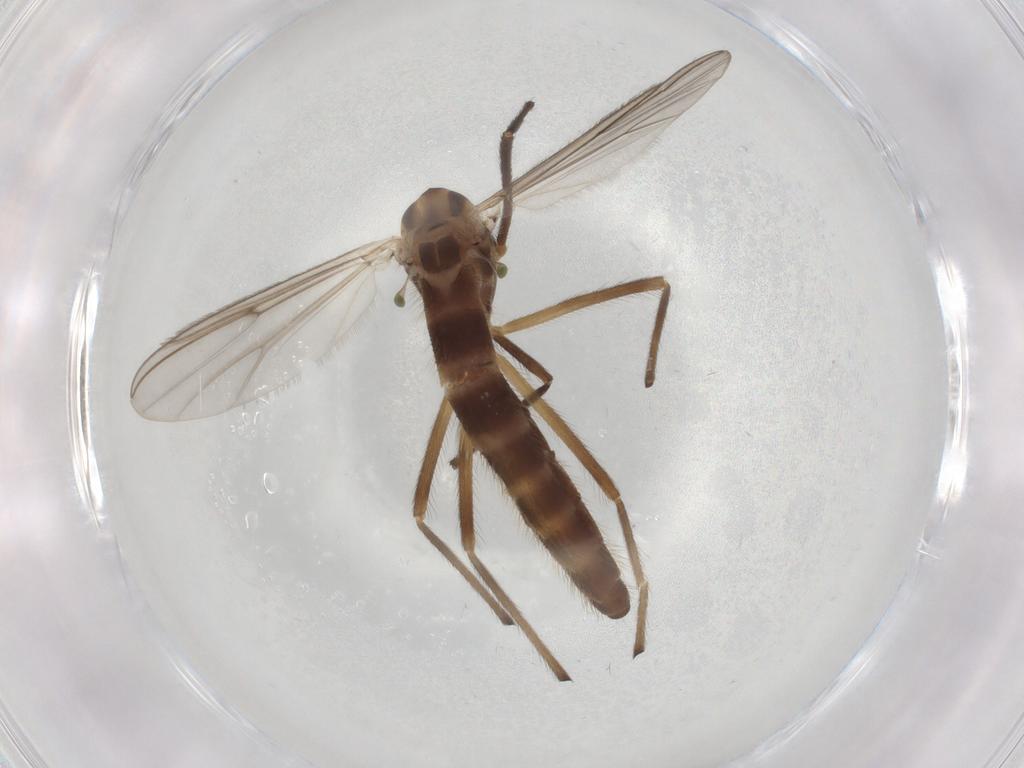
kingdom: Animalia
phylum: Arthropoda
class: Insecta
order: Diptera
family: Chironomidae
